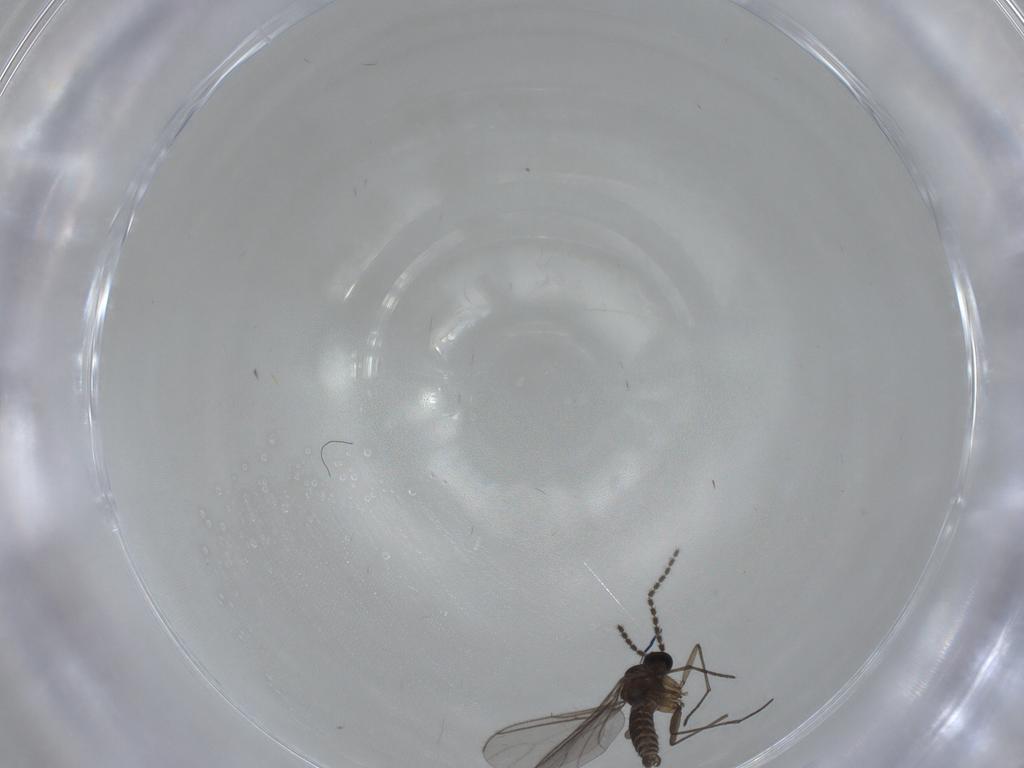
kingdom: Animalia
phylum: Arthropoda
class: Insecta
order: Diptera
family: Sciaridae
